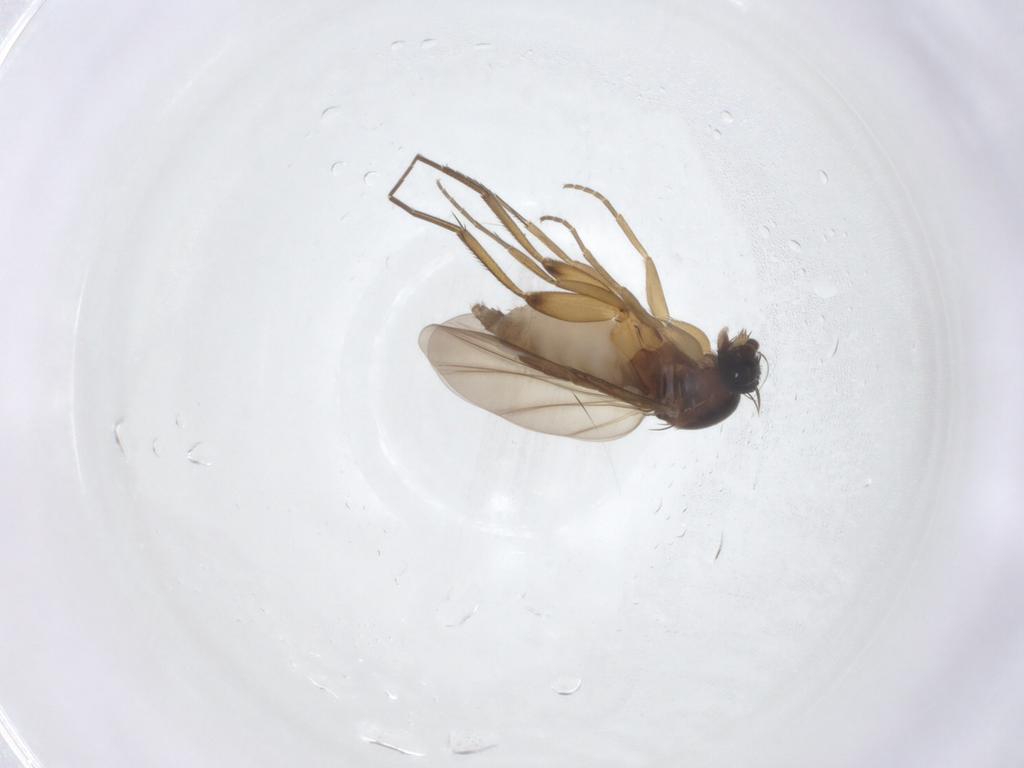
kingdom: Animalia
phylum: Arthropoda
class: Insecta
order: Diptera
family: Phoridae
